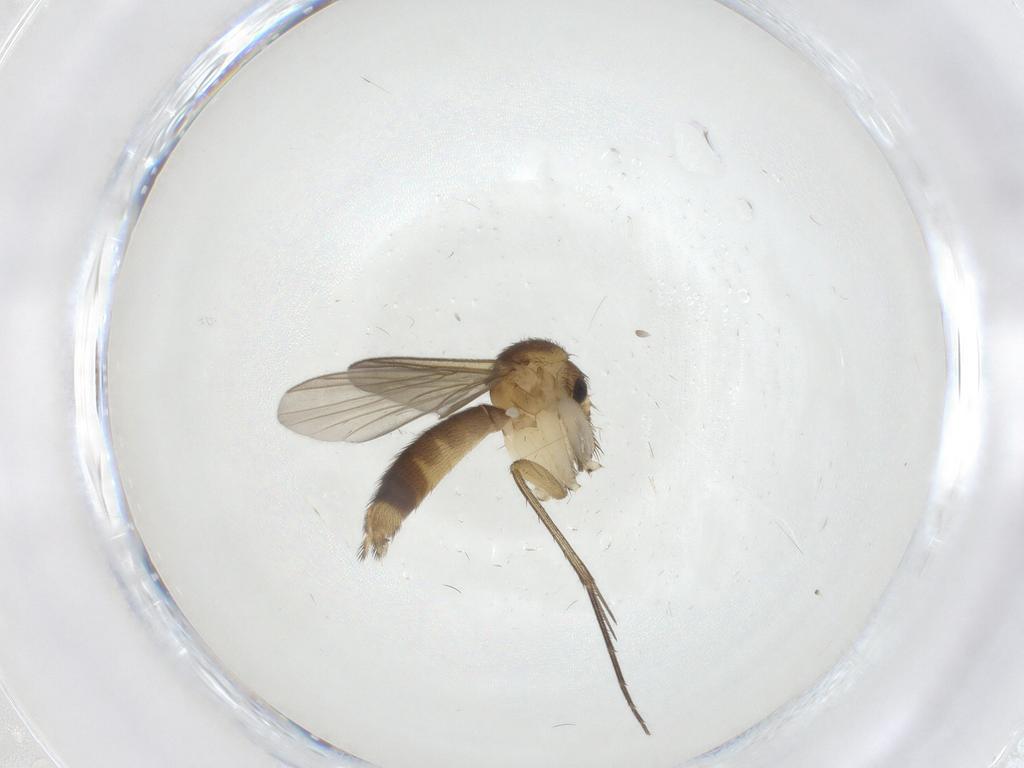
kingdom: Animalia
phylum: Arthropoda
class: Insecta
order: Diptera
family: Mycetophilidae
